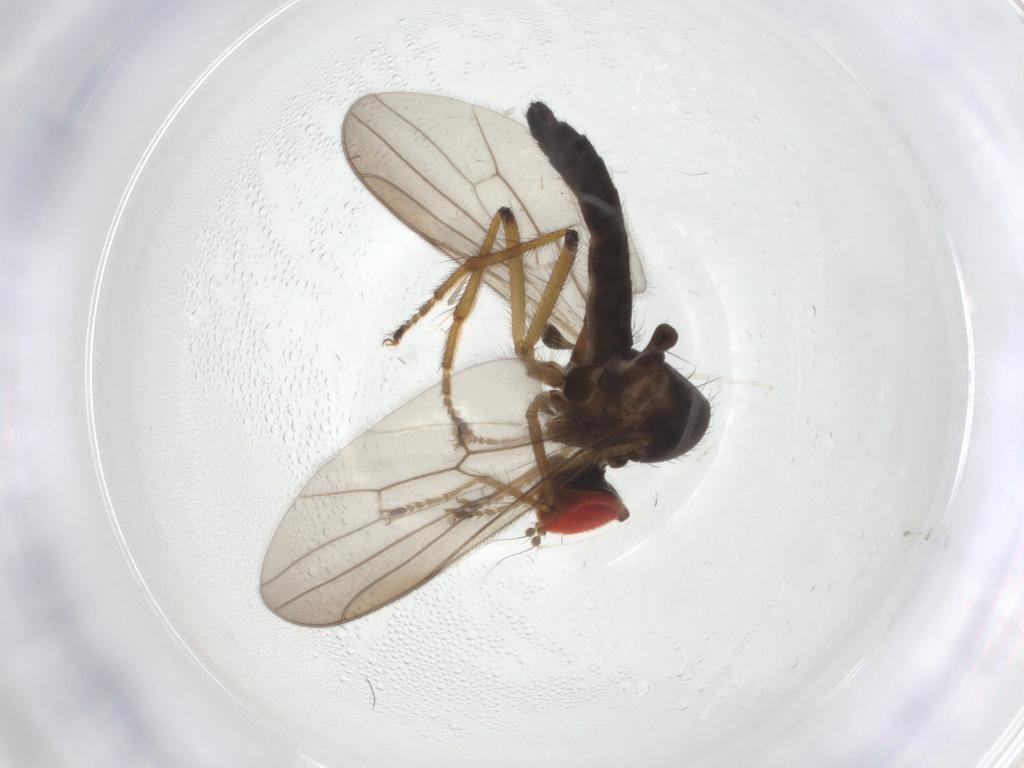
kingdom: Animalia
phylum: Arthropoda
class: Insecta
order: Diptera
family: Hybotidae
